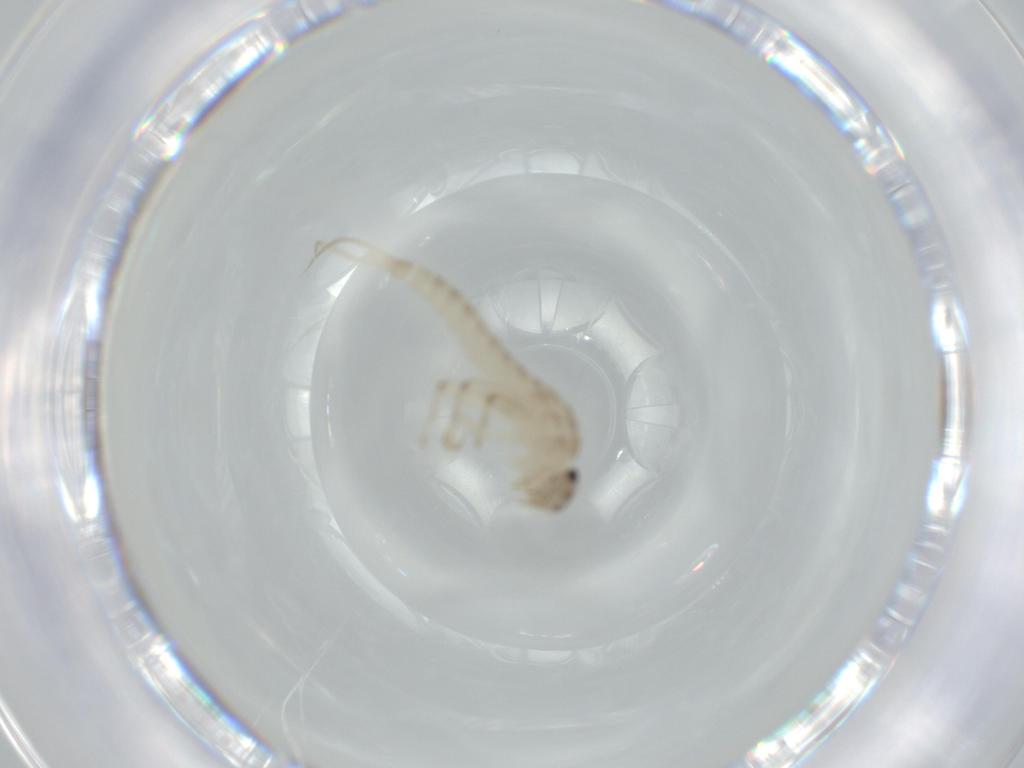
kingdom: Animalia
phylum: Arthropoda
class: Insecta
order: Ephemeroptera
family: Baetidae
